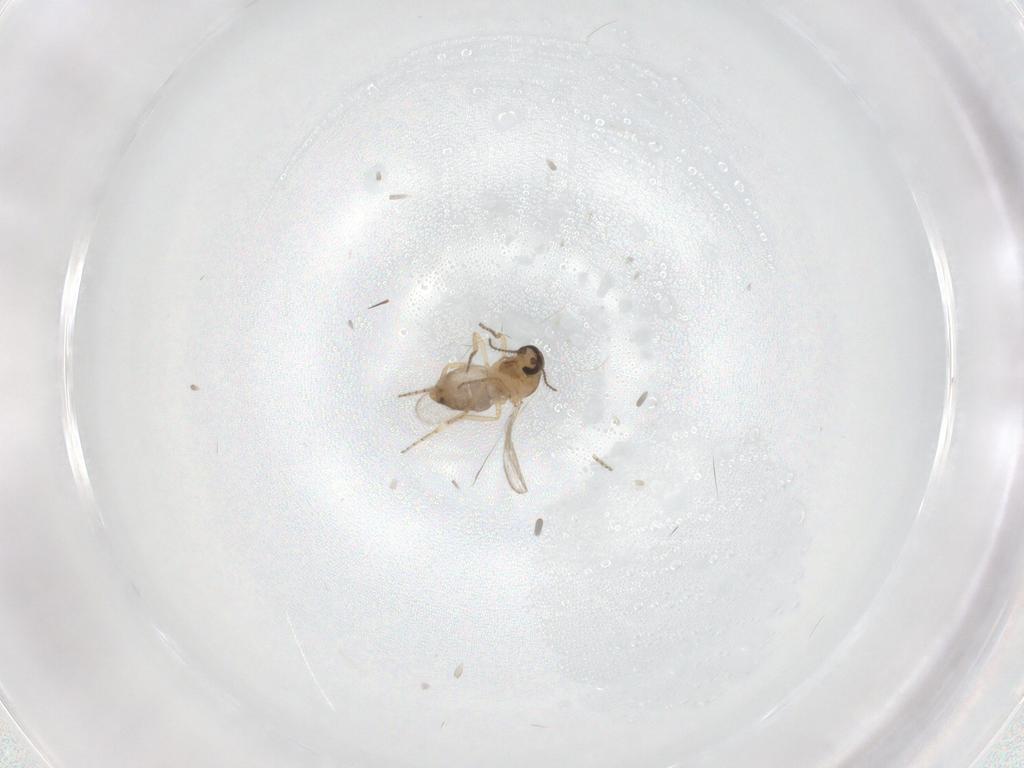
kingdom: Animalia
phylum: Arthropoda
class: Insecta
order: Diptera
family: Ceratopogonidae
